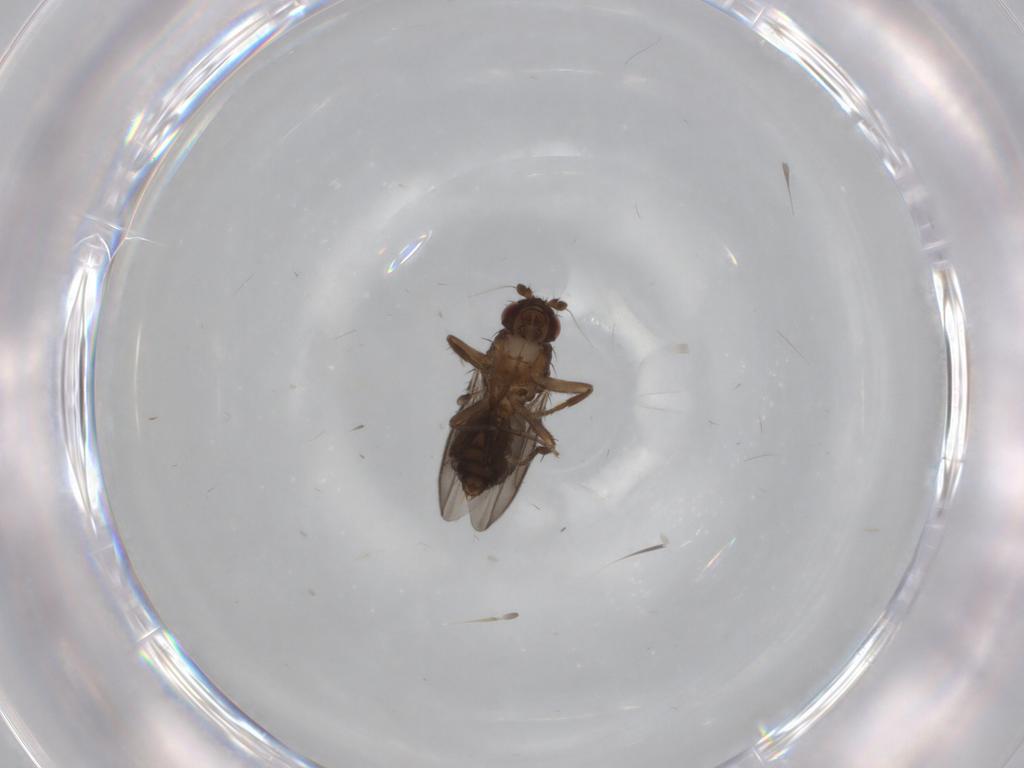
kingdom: Animalia
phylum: Arthropoda
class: Insecta
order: Diptera
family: Sphaeroceridae
